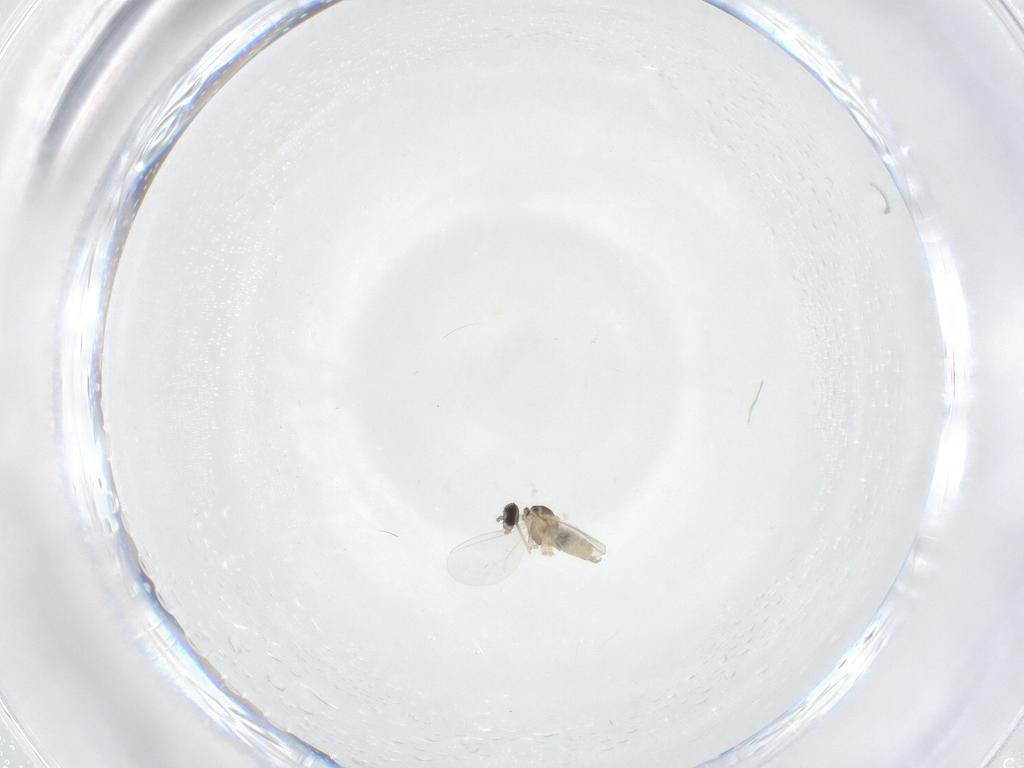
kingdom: Animalia
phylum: Arthropoda
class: Insecta
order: Diptera
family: Cecidomyiidae
